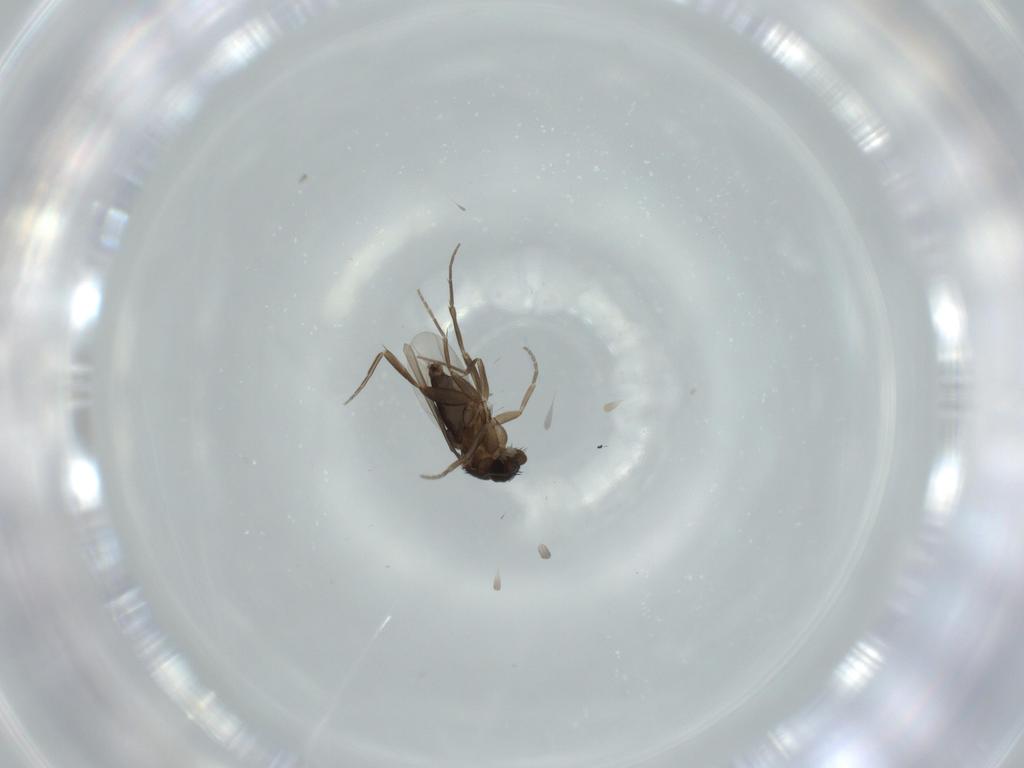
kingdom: Animalia
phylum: Arthropoda
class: Insecta
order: Diptera
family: Phoridae
